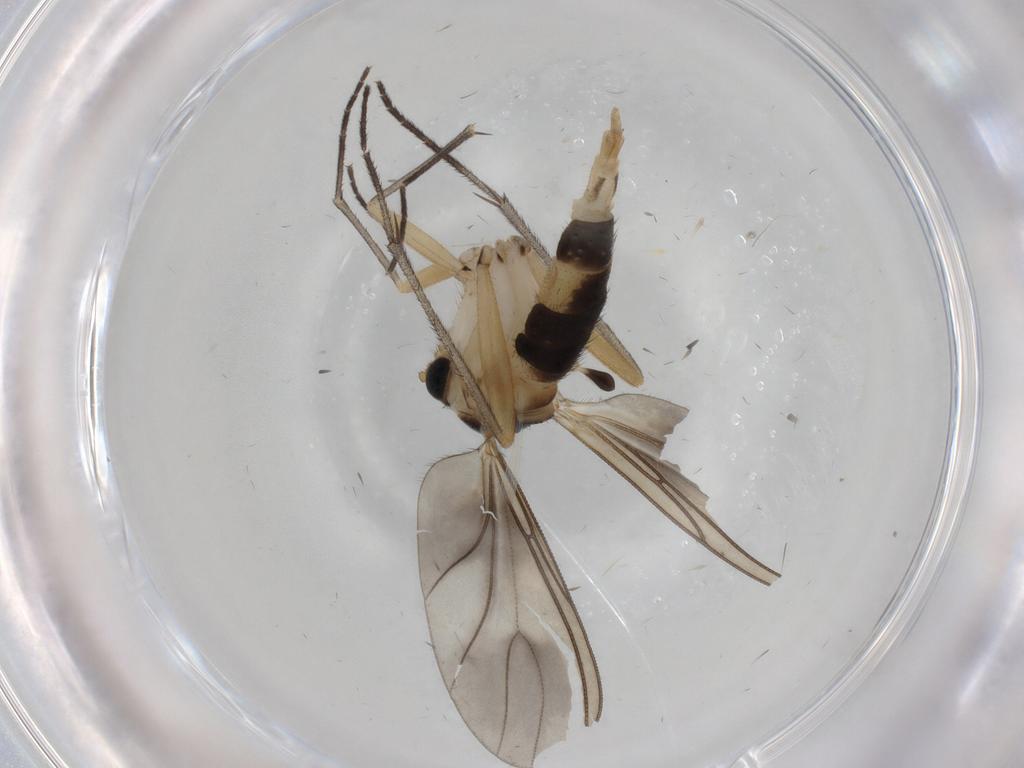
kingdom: Animalia
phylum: Arthropoda
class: Insecta
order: Diptera
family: Sciaridae
